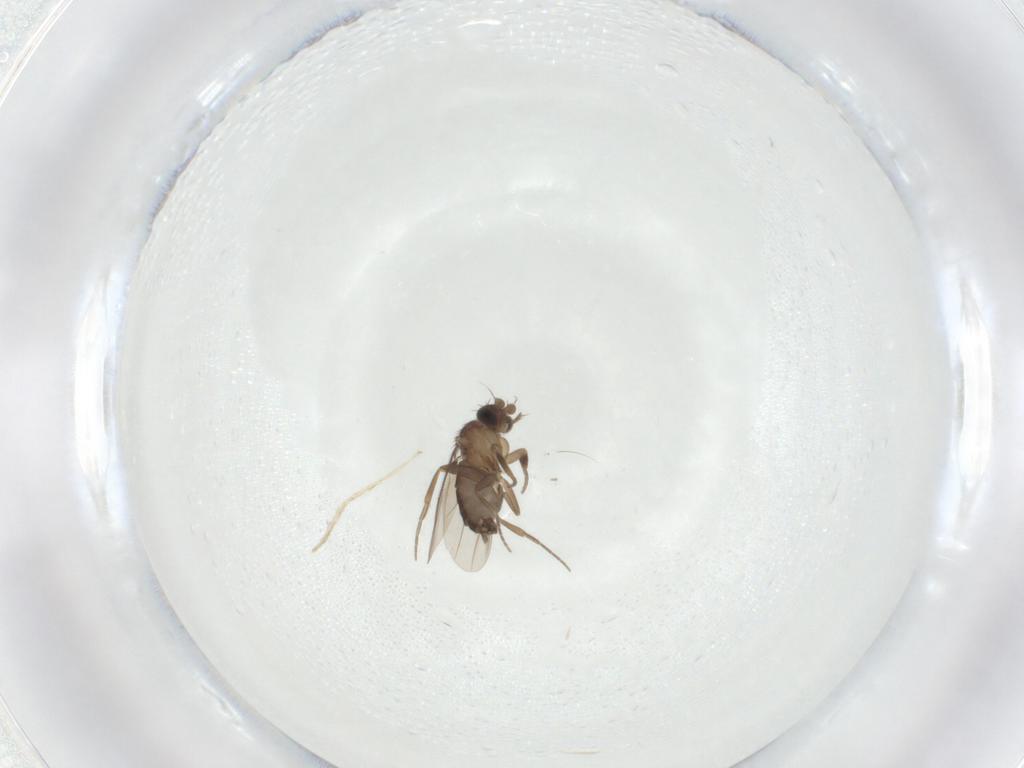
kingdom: Animalia
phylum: Arthropoda
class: Insecta
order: Diptera
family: Cecidomyiidae
